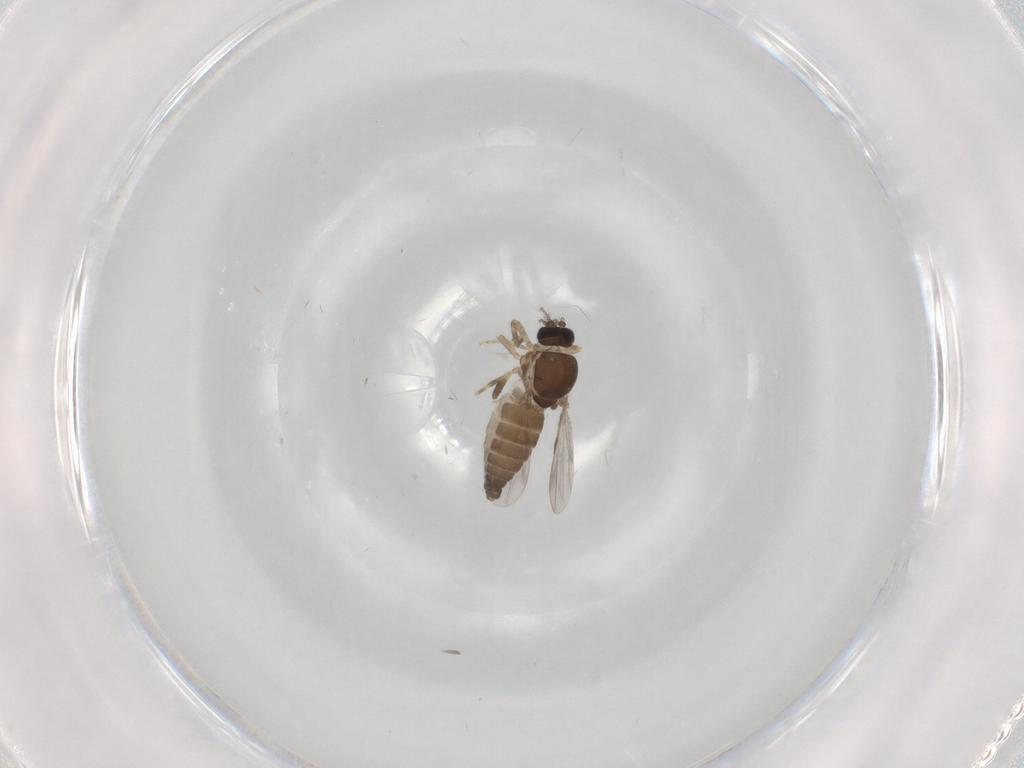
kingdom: Animalia
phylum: Arthropoda
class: Insecta
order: Diptera
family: Ceratopogonidae
